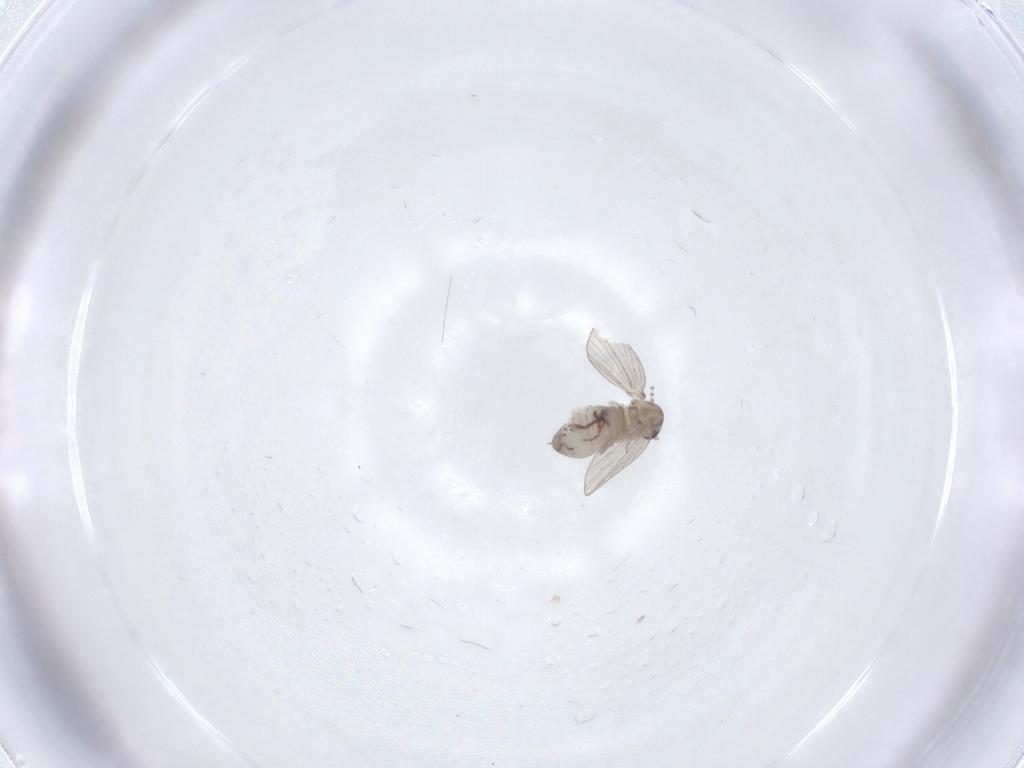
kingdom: Animalia
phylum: Arthropoda
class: Insecta
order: Diptera
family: Psychodidae
